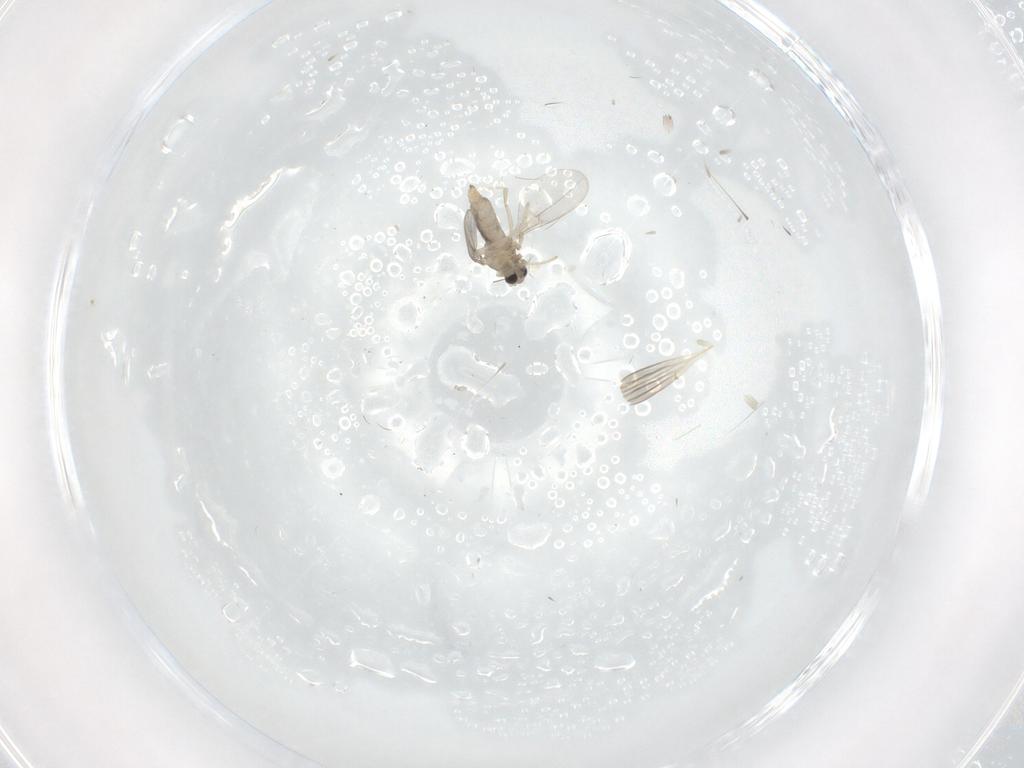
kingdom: Animalia
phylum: Arthropoda
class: Insecta
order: Diptera
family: Cecidomyiidae
